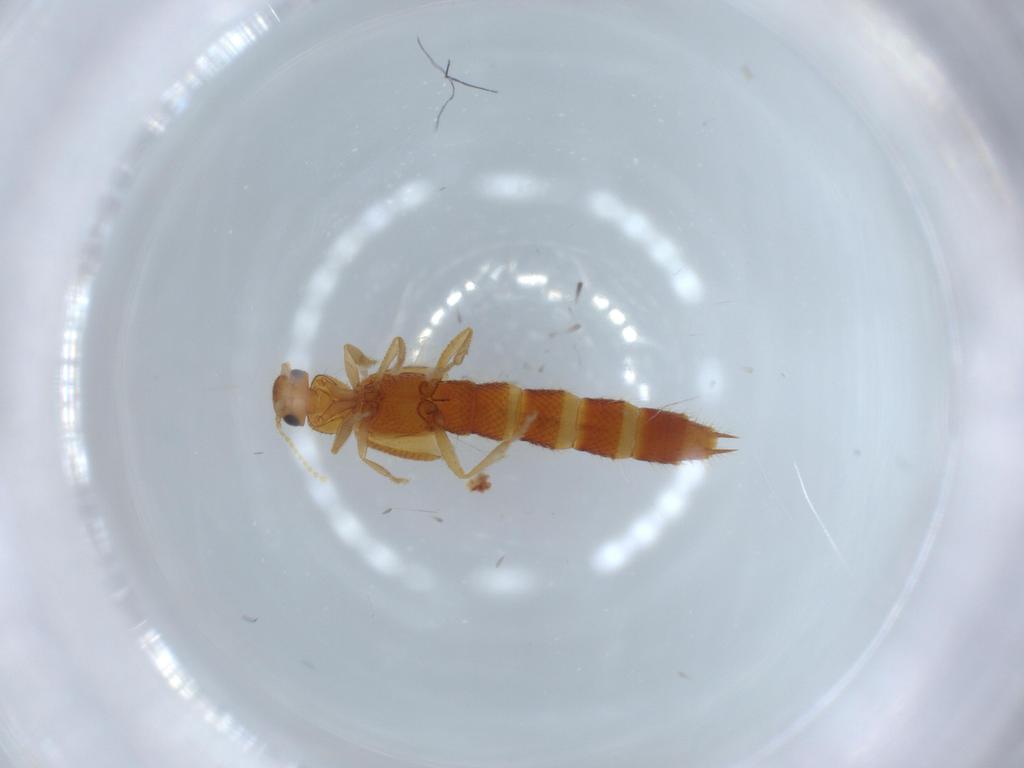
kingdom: Animalia
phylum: Arthropoda
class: Insecta
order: Coleoptera
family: Staphylinidae
